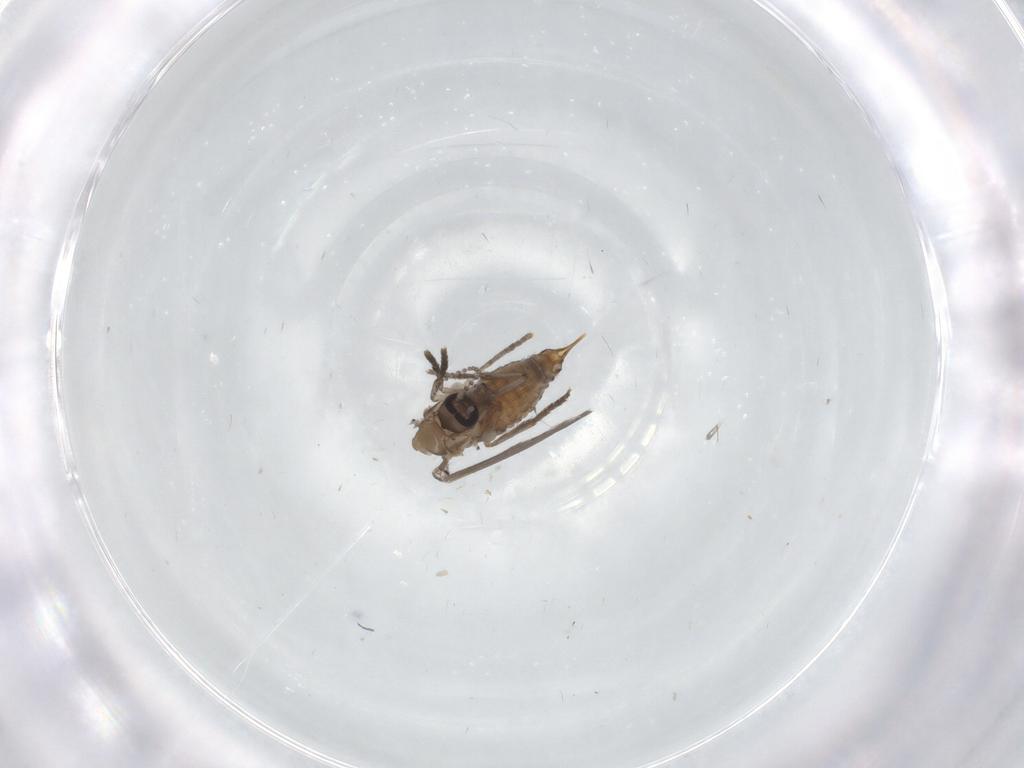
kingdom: Animalia
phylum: Arthropoda
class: Insecta
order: Diptera
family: Psychodidae
